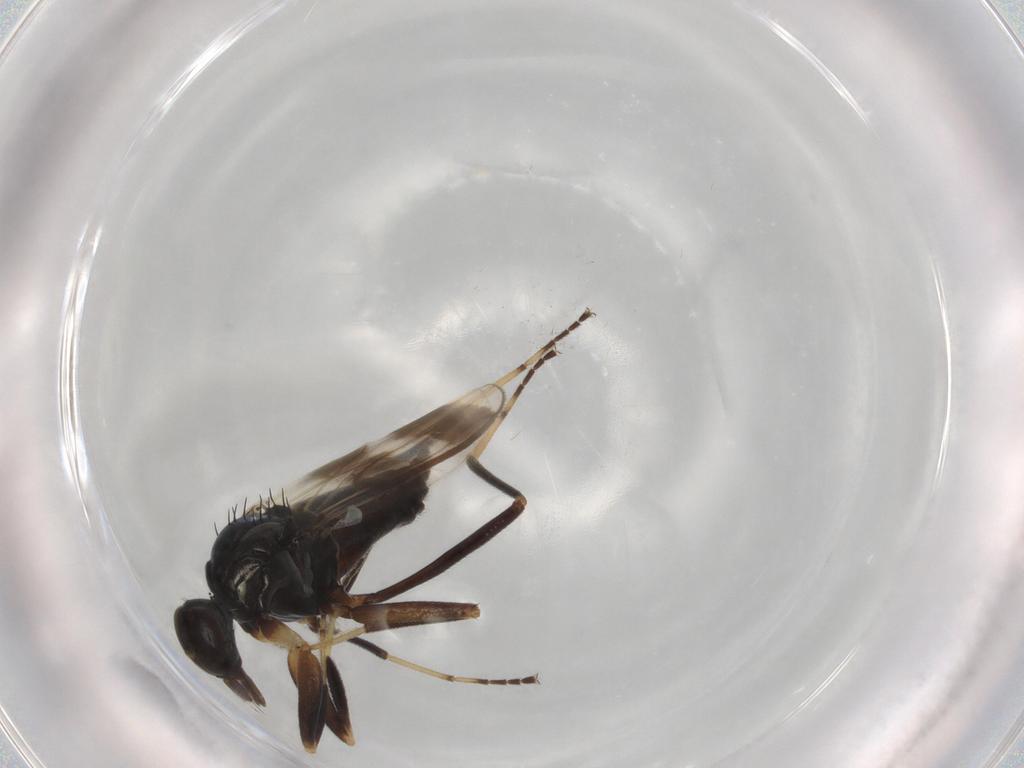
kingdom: Animalia
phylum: Arthropoda
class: Insecta
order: Diptera
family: Hybotidae
